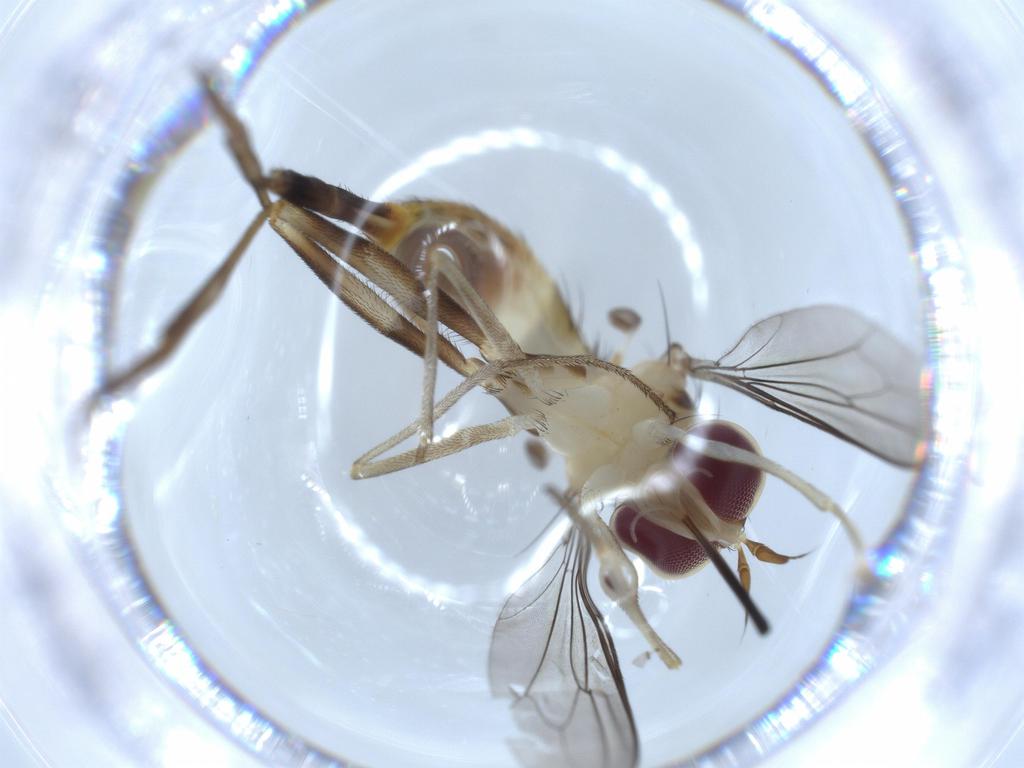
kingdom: Animalia
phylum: Arthropoda
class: Insecta
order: Diptera
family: Conopidae
